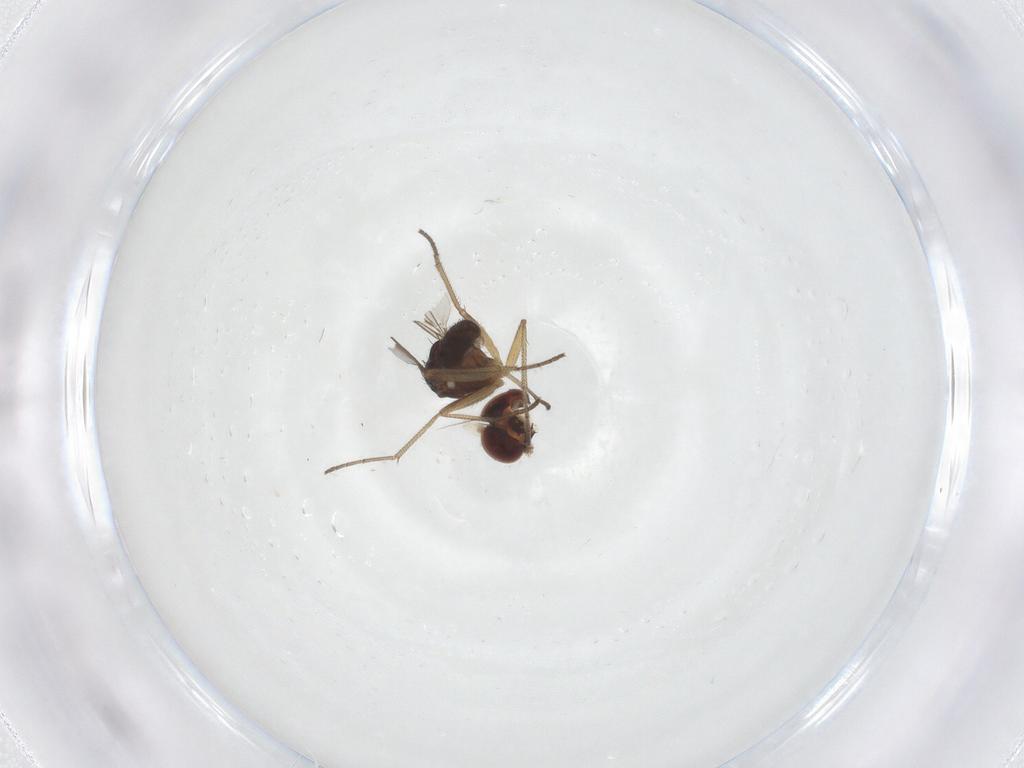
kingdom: Animalia
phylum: Arthropoda
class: Insecta
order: Diptera
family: Dolichopodidae
